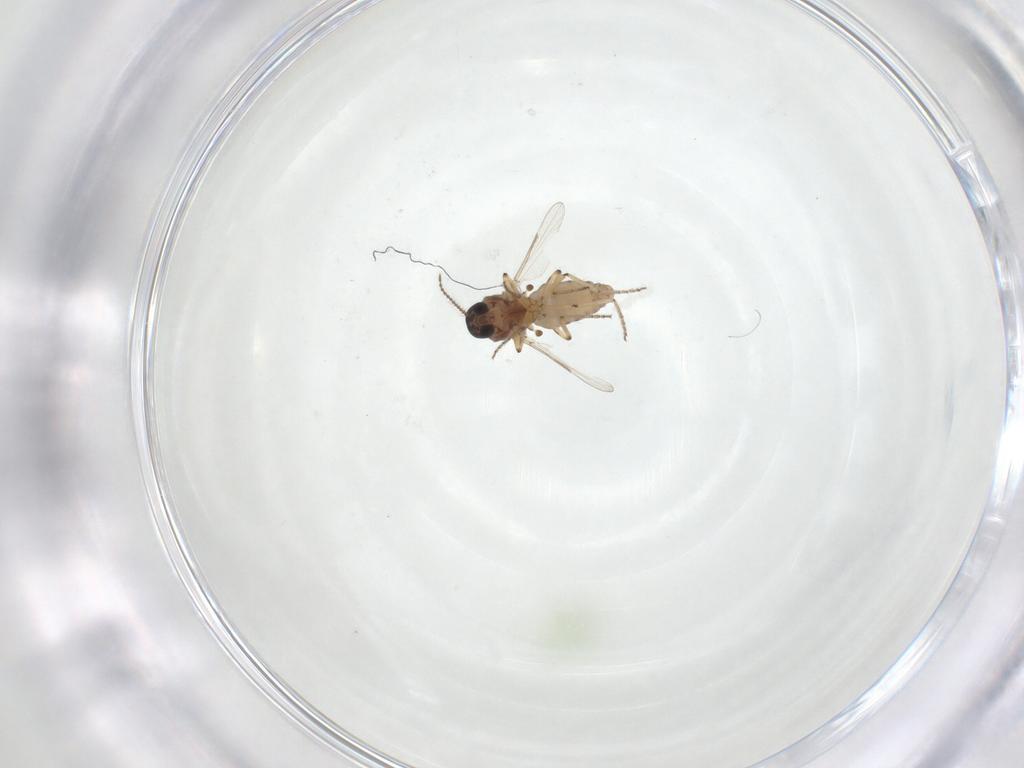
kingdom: Animalia
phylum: Arthropoda
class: Insecta
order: Diptera
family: Ceratopogonidae
